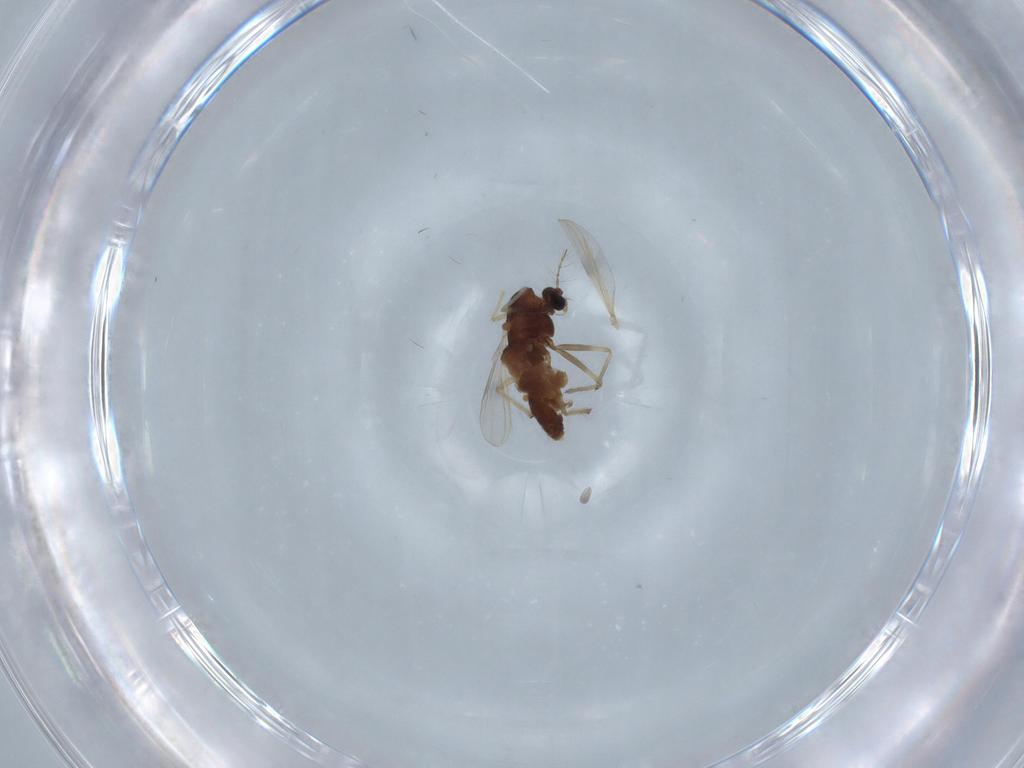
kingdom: Animalia
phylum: Arthropoda
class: Insecta
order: Diptera
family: Chironomidae
